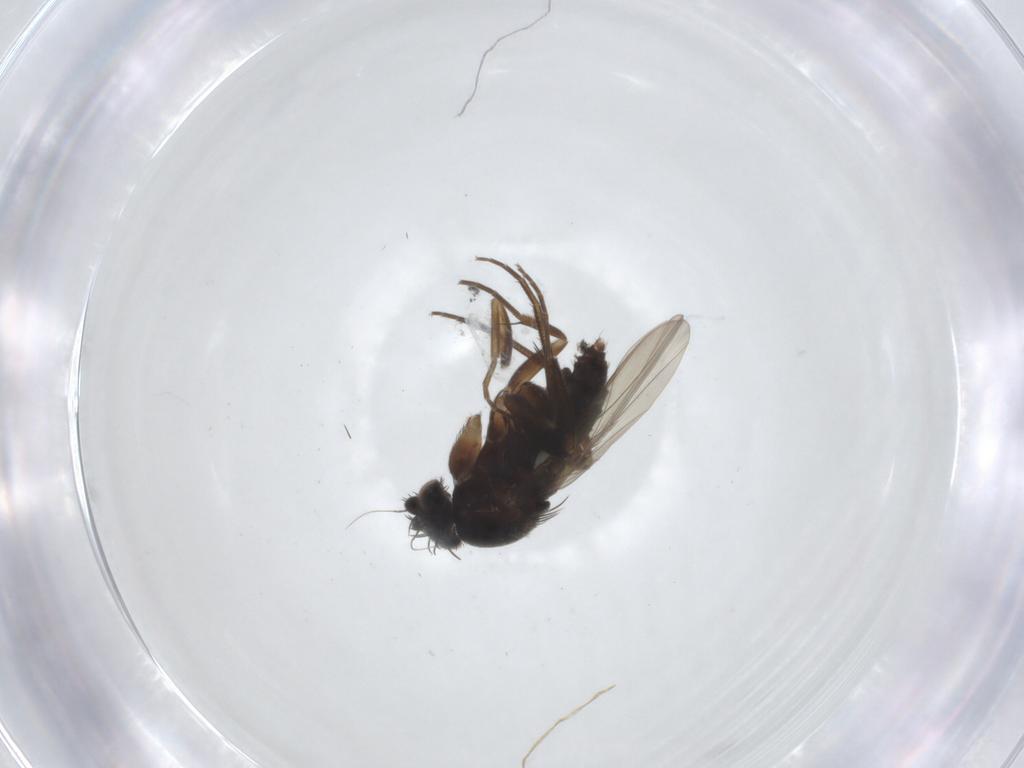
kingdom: Animalia
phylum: Arthropoda
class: Insecta
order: Diptera
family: Phoridae
